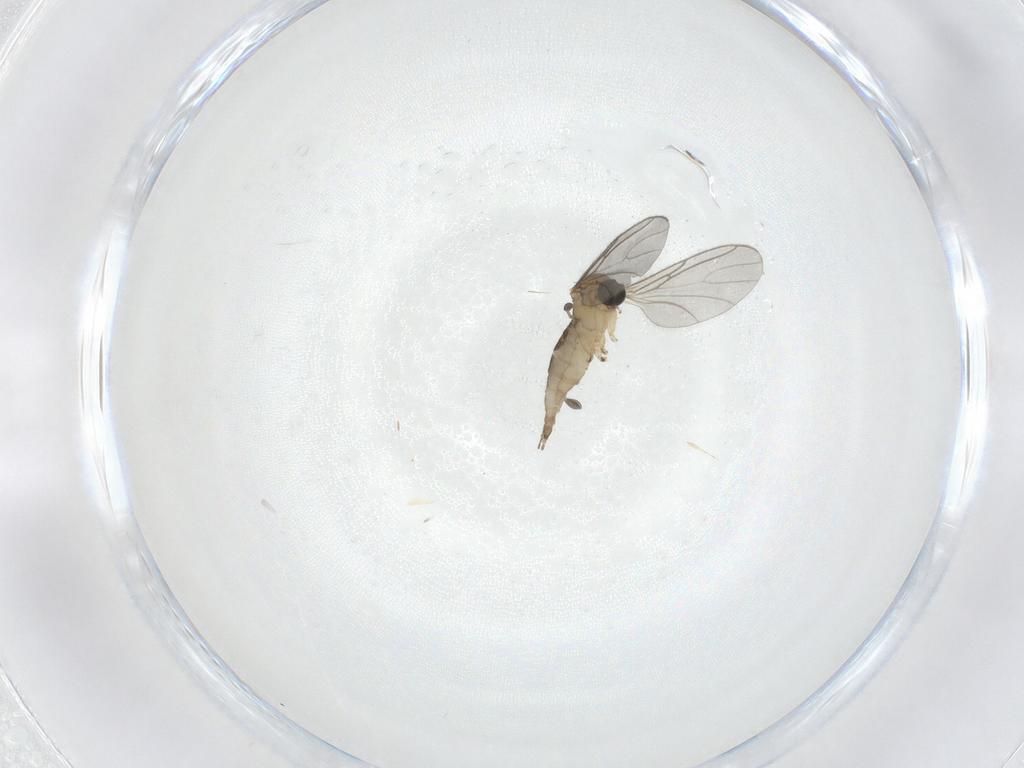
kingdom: Animalia
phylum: Arthropoda
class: Insecta
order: Diptera
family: Sciaridae
